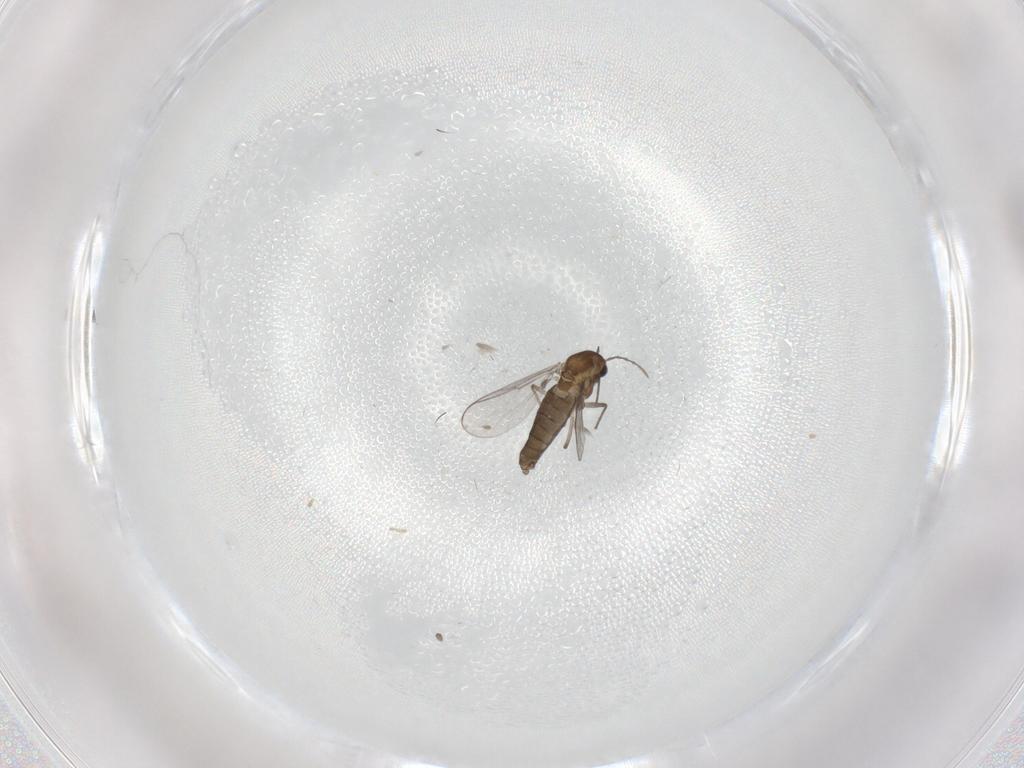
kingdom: Animalia
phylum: Arthropoda
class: Insecta
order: Diptera
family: Chironomidae
